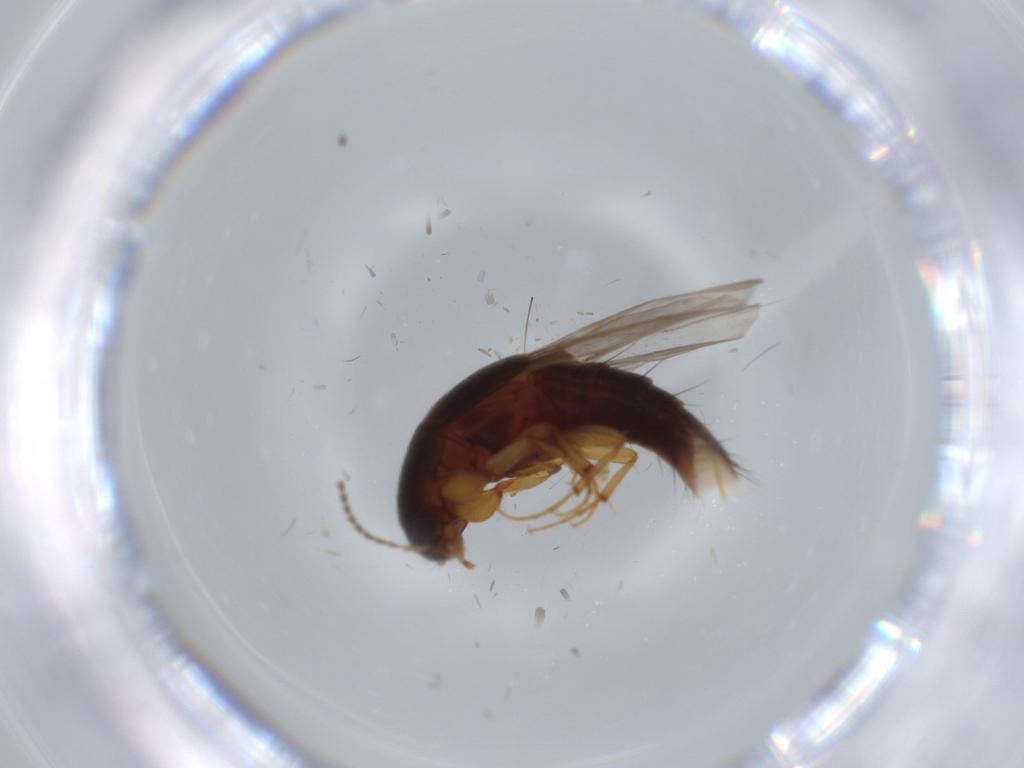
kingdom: Animalia
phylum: Arthropoda
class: Insecta
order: Coleoptera
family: Staphylinidae
